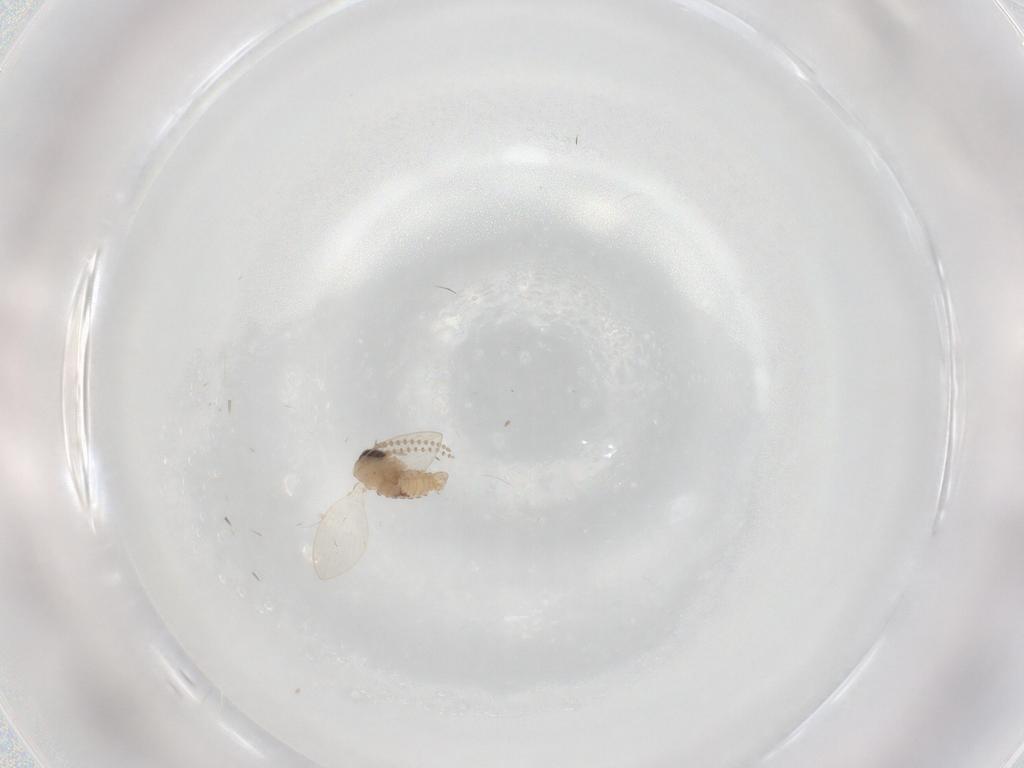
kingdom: Animalia
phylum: Arthropoda
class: Insecta
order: Diptera
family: Psychodidae
